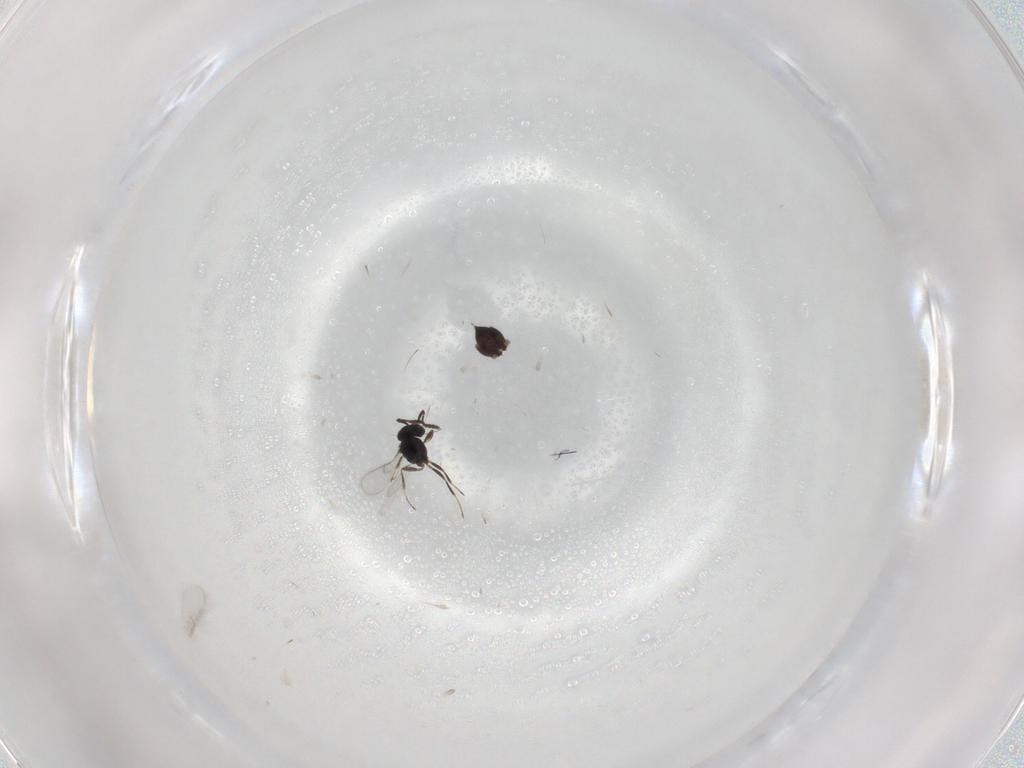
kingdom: Animalia
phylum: Arthropoda
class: Insecta
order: Hymenoptera
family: Scelionidae
